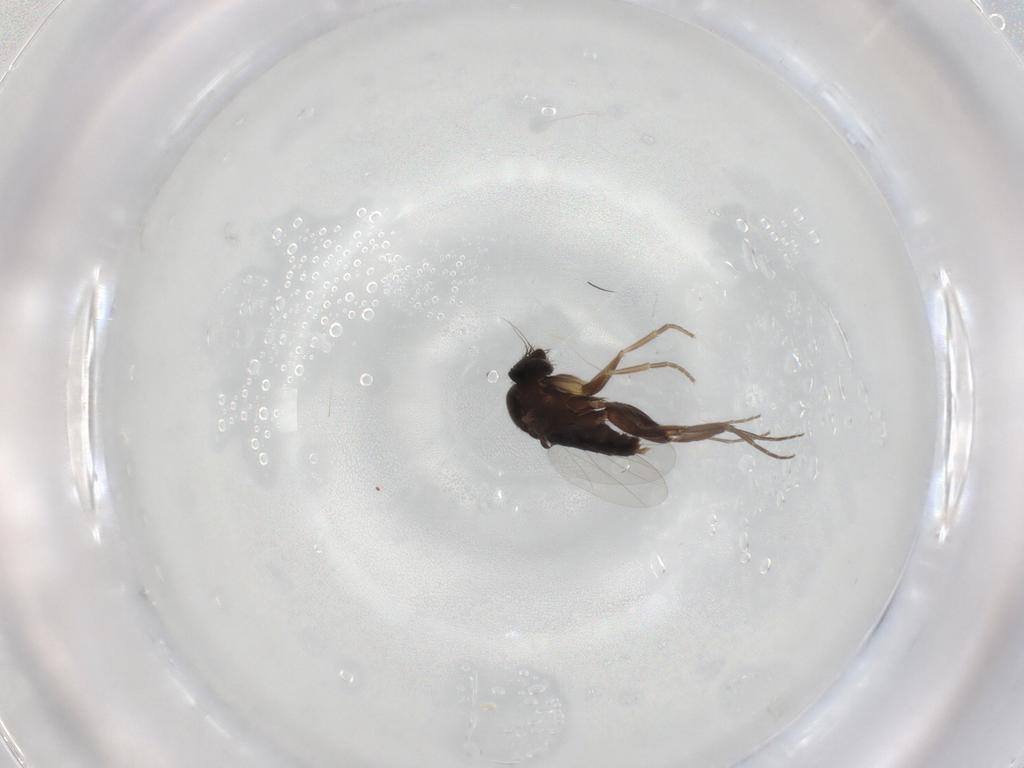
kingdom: Animalia
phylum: Arthropoda
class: Insecta
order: Diptera
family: Phoridae
